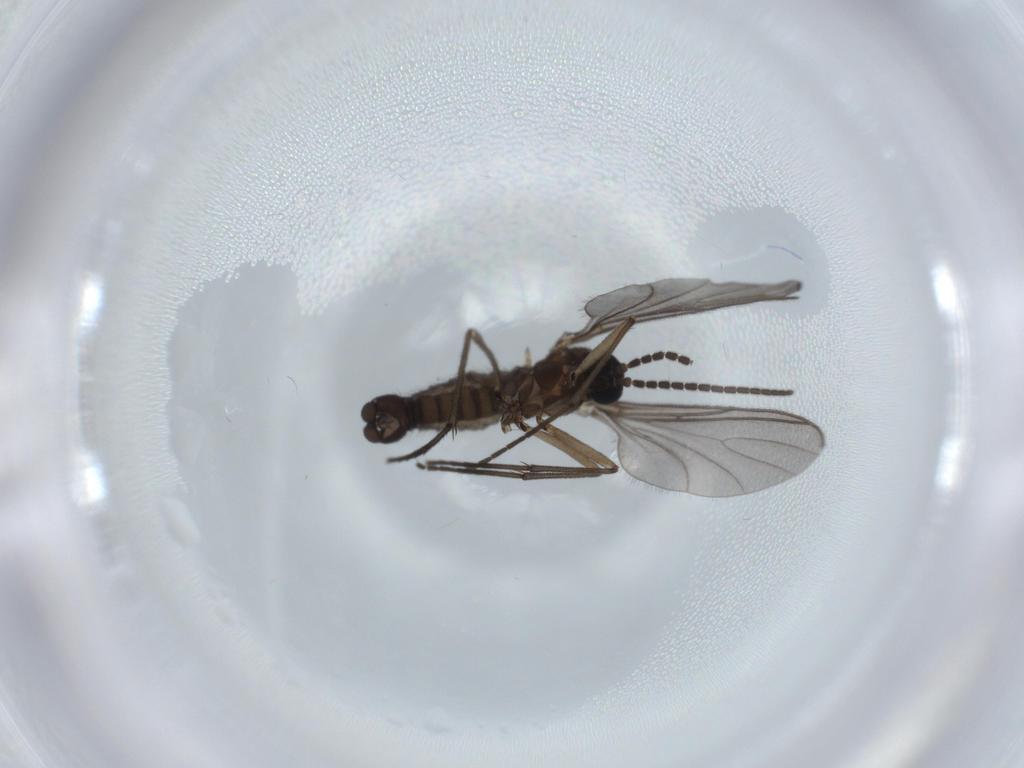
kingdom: Animalia
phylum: Arthropoda
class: Insecta
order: Diptera
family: Sciaridae
